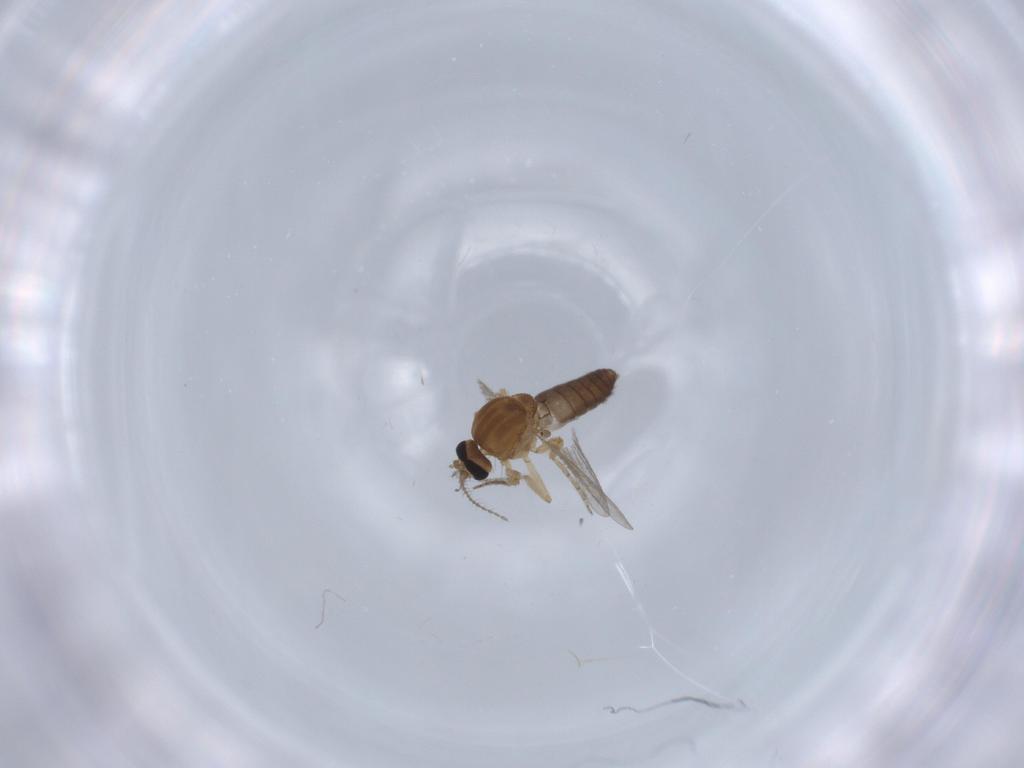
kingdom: Animalia
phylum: Arthropoda
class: Insecta
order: Diptera
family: Ceratopogonidae
